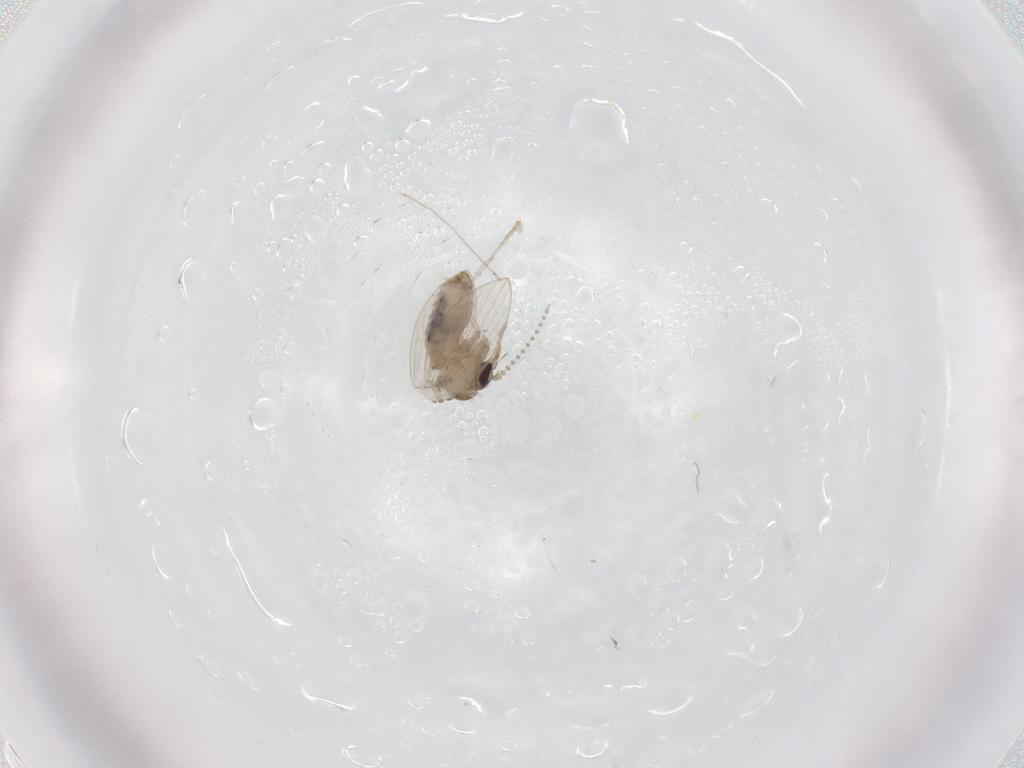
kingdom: Animalia
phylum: Arthropoda
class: Insecta
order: Diptera
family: Psychodidae
